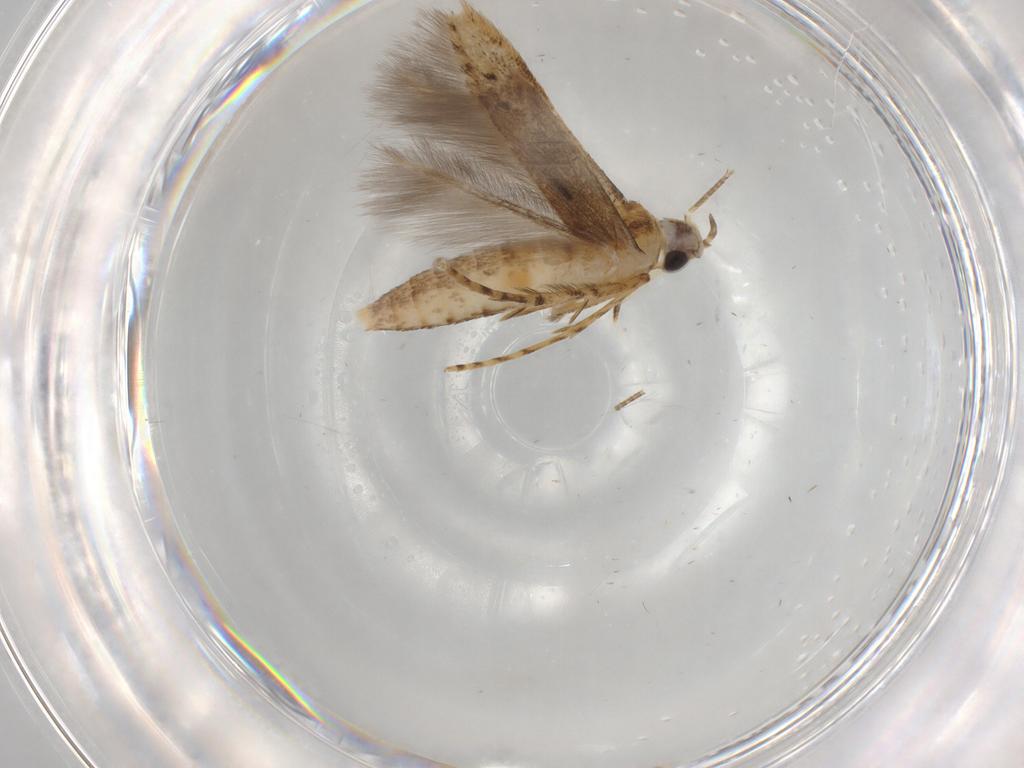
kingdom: Animalia
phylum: Arthropoda
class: Insecta
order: Lepidoptera
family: Batrachedridae
